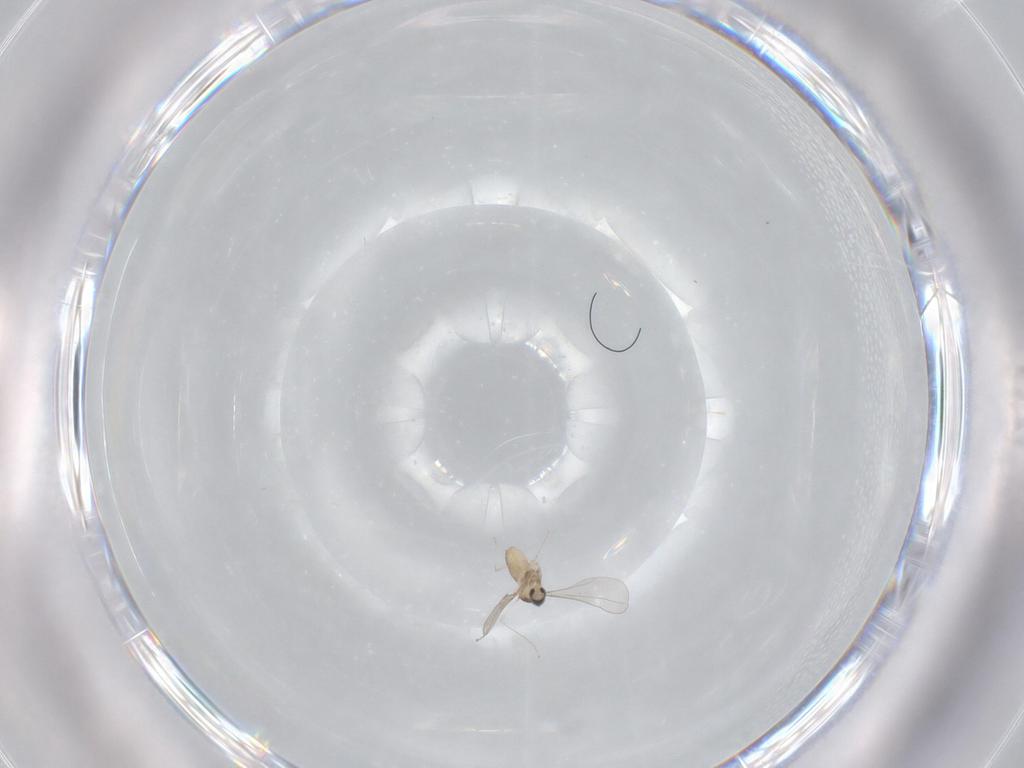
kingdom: Animalia
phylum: Arthropoda
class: Insecta
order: Diptera
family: Cecidomyiidae
